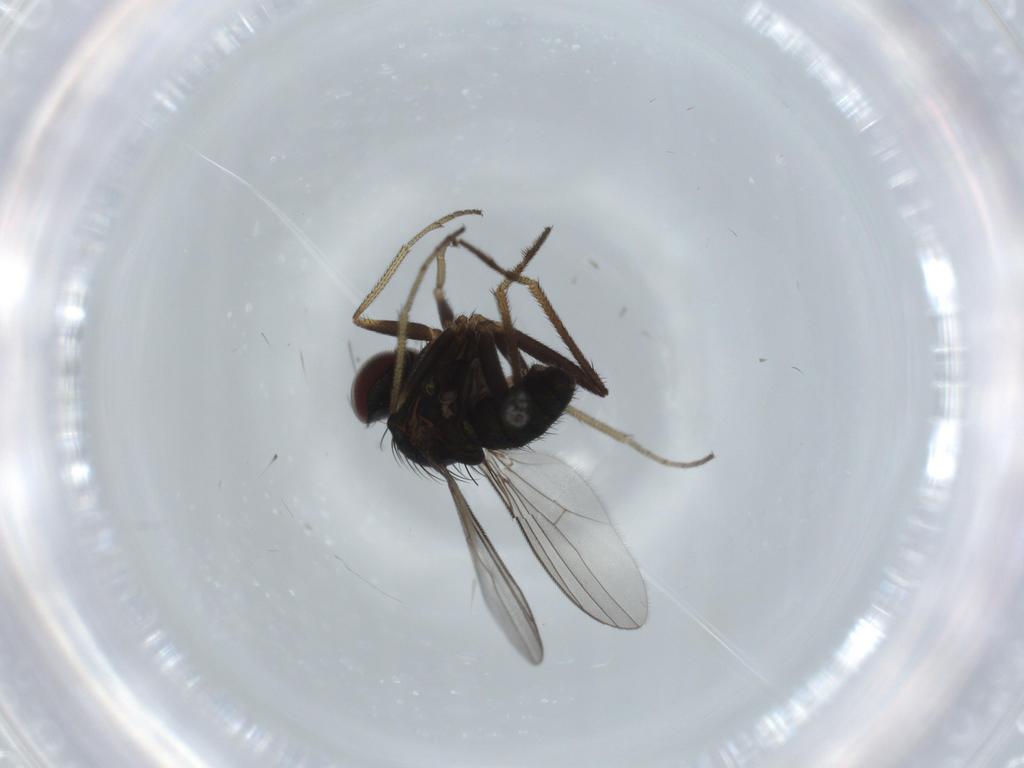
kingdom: Animalia
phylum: Arthropoda
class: Insecta
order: Diptera
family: Dolichopodidae
